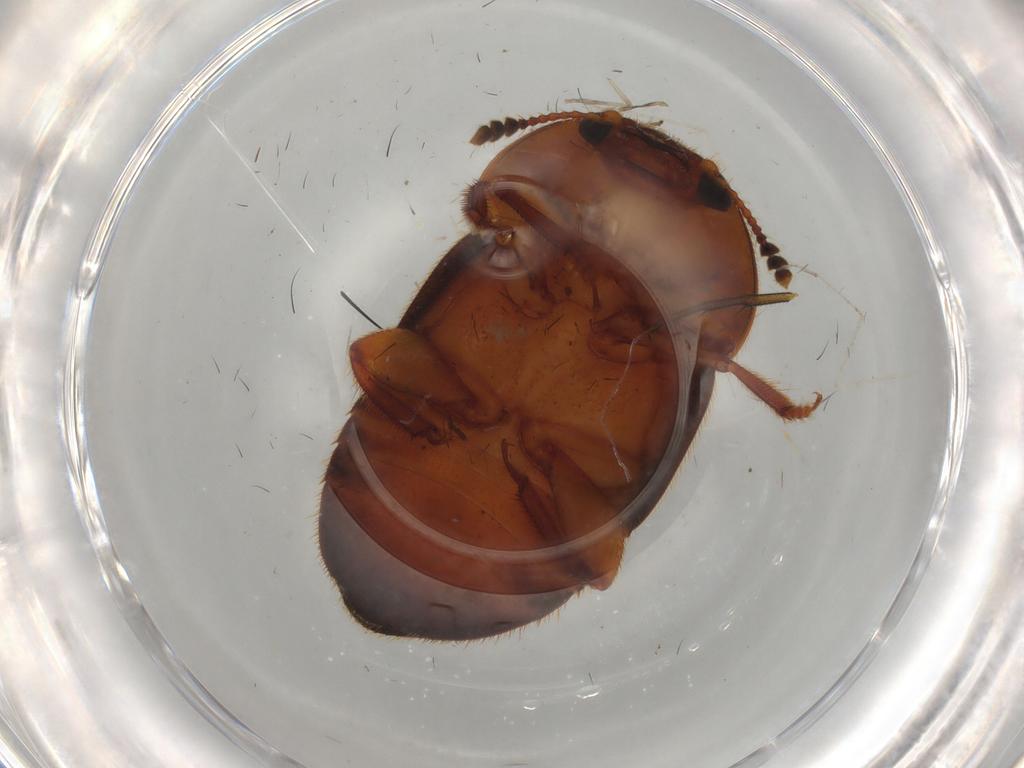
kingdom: Animalia
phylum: Arthropoda
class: Insecta
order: Coleoptera
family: Nitidulidae
